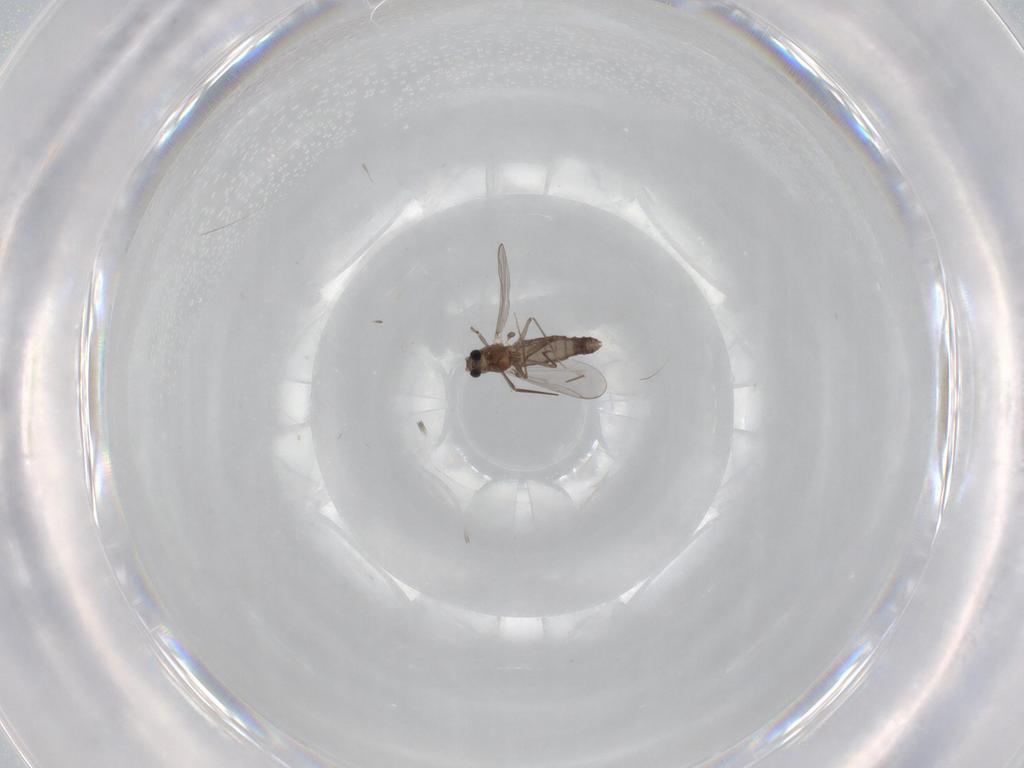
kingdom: Animalia
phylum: Arthropoda
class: Insecta
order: Diptera
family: Chironomidae
